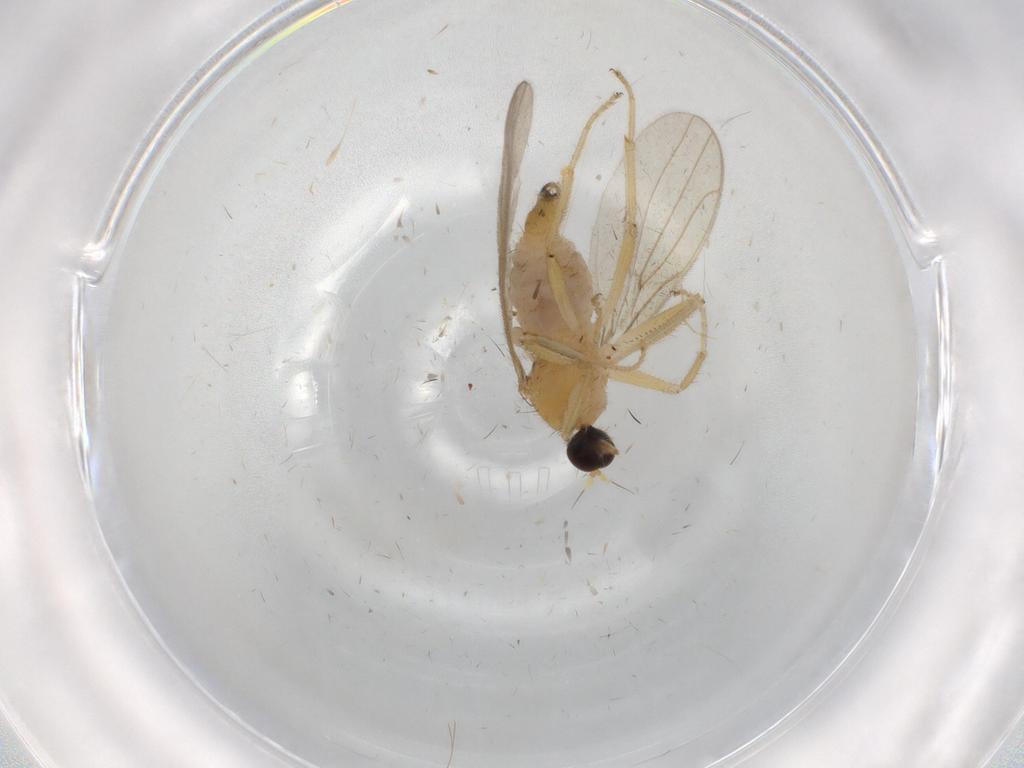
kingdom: Animalia
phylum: Arthropoda
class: Insecta
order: Diptera
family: Hybotidae
